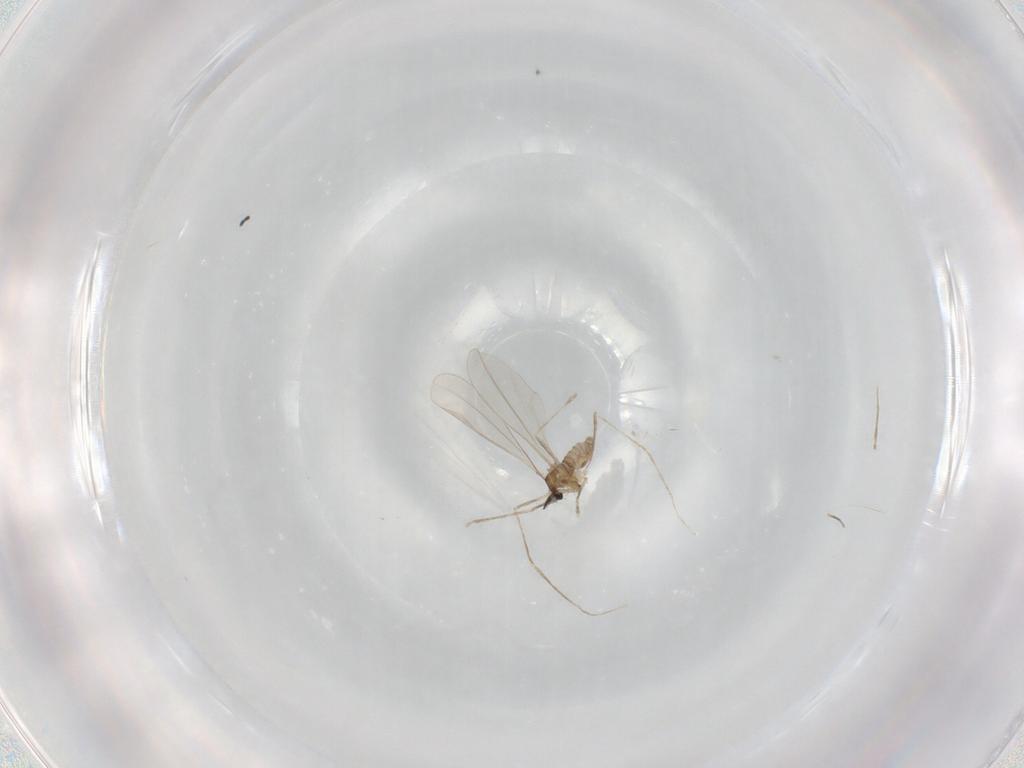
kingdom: Animalia
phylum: Arthropoda
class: Insecta
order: Diptera
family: Cecidomyiidae
